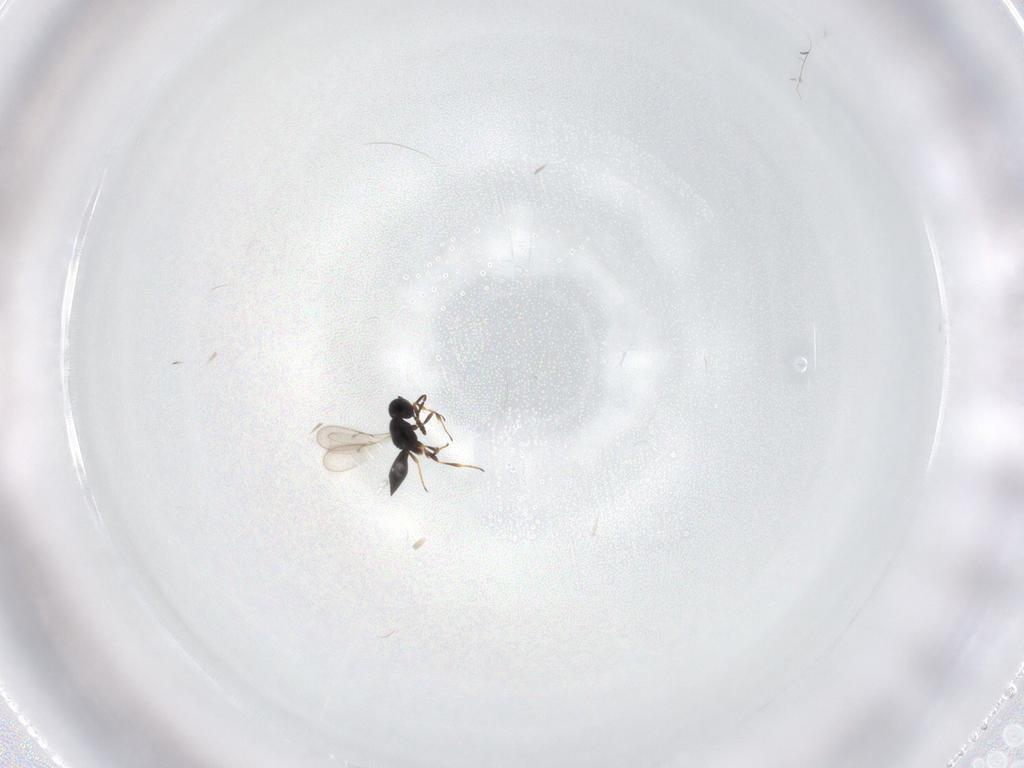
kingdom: Animalia
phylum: Arthropoda
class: Insecta
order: Hymenoptera
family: Scelionidae
